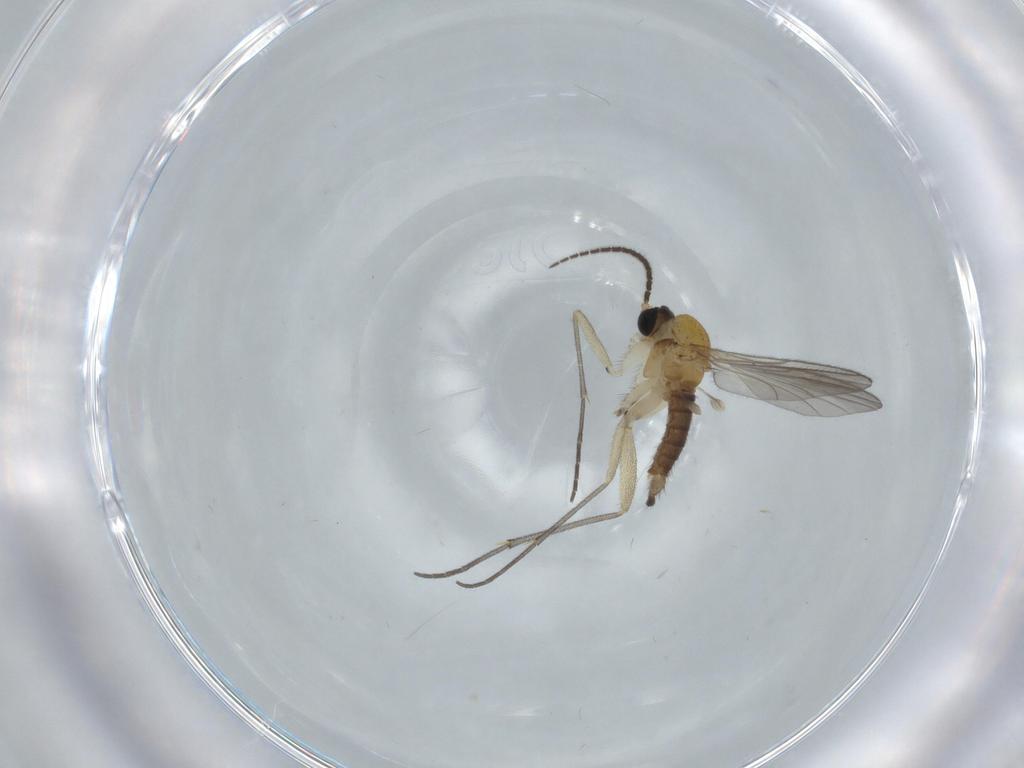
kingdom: Animalia
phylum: Arthropoda
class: Insecta
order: Diptera
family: Sciaridae
